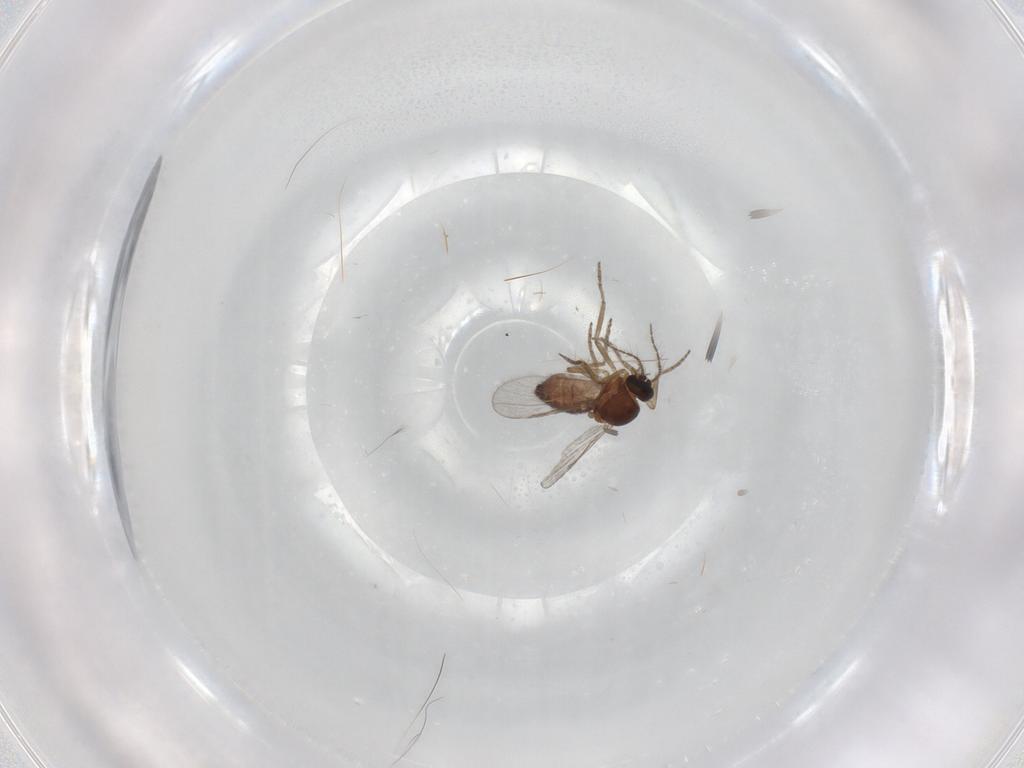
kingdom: Animalia
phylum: Arthropoda
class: Insecta
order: Diptera
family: Ceratopogonidae
